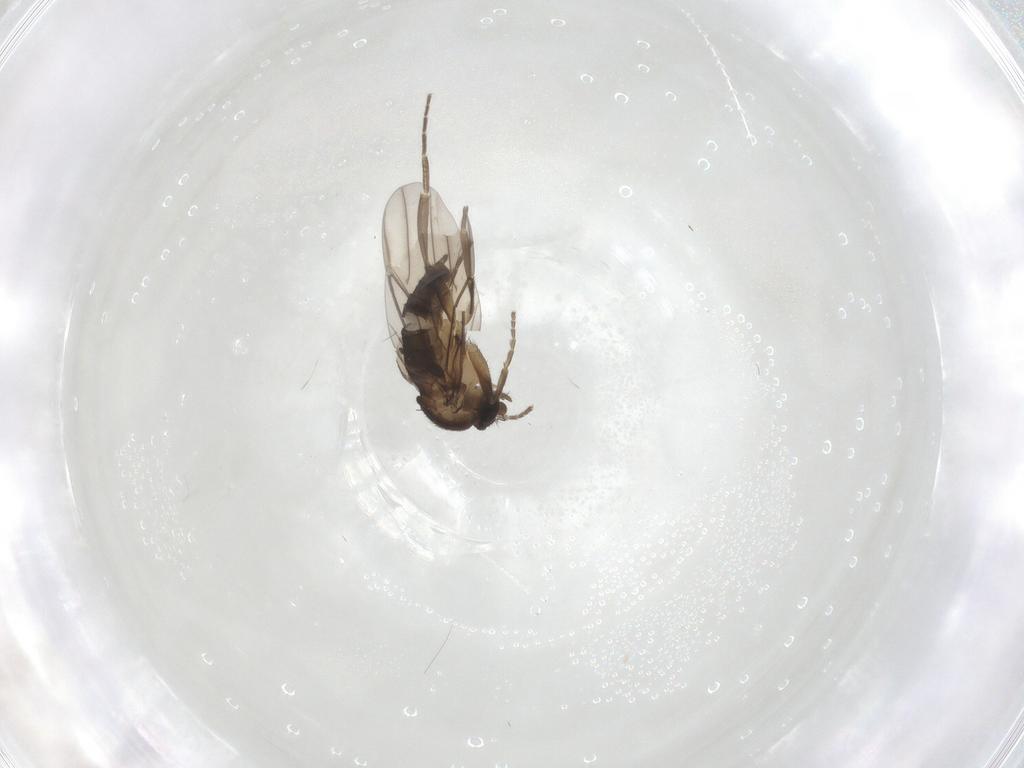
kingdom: Animalia
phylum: Arthropoda
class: Insecta
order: Diptera
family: Phoridae
